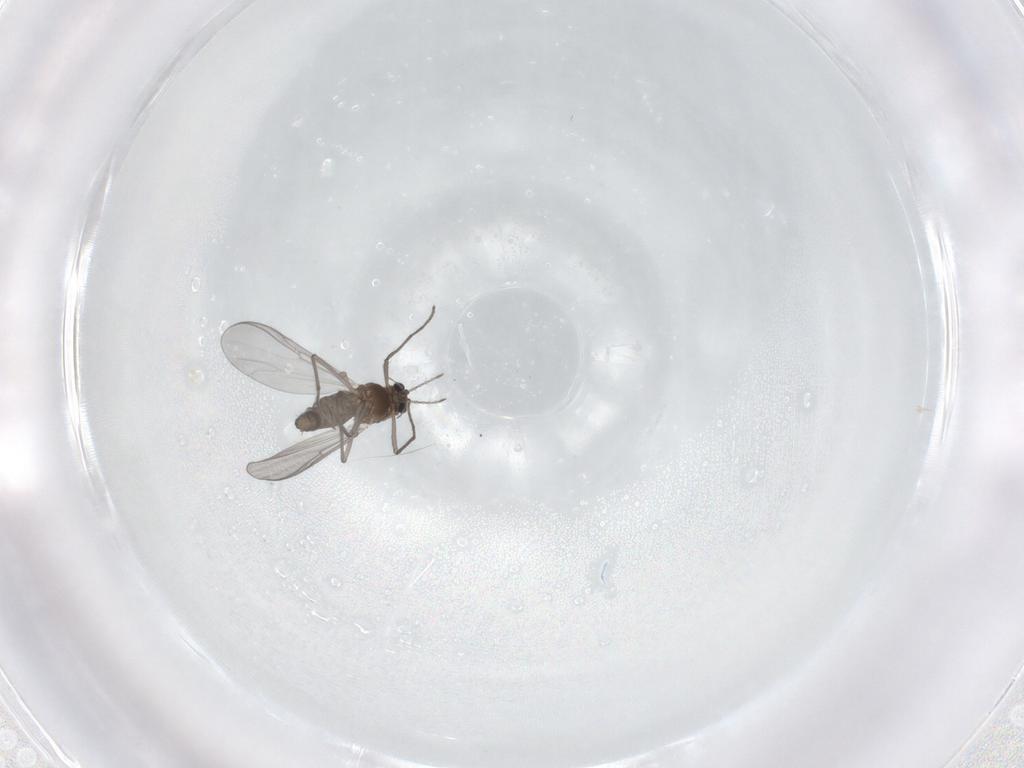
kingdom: Animalia
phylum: Arthropoda
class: Insecta
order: Diptera
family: Chironomidae
